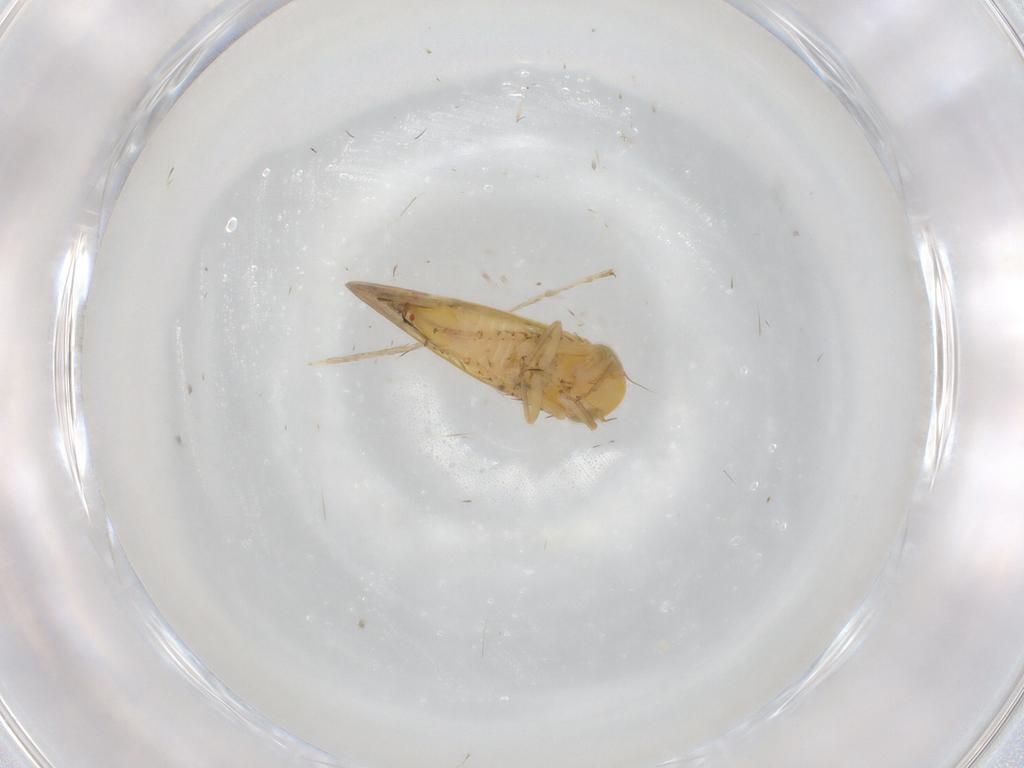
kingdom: Animalia
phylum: Arthropoda
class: Insecta
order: Hemiptera
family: Cicadellidae
